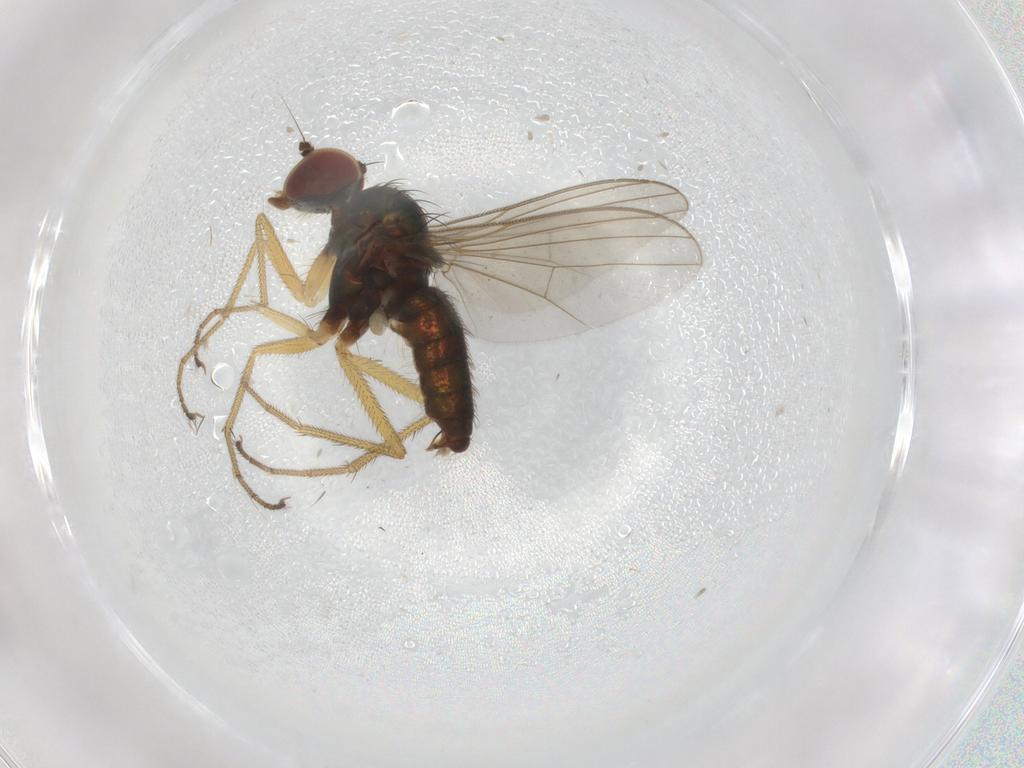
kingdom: Animalia
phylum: Arthropoda
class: Insecta
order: Diptera
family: Dolichopodidae
